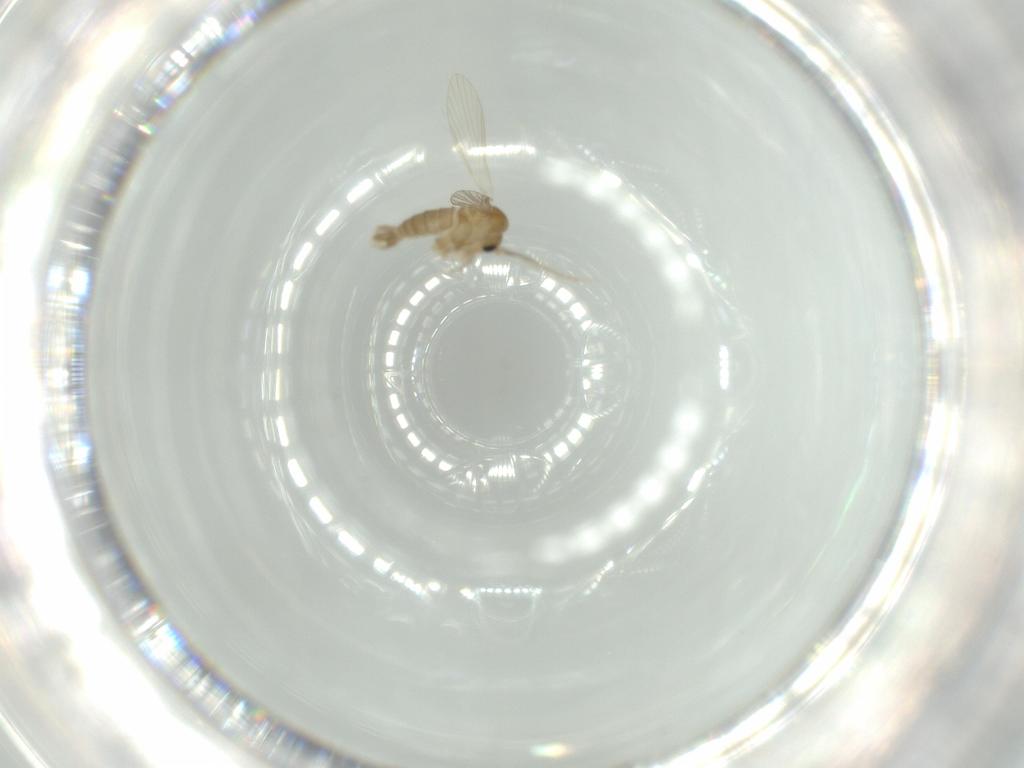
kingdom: Animalia
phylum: Arthropoda
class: Insecta
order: Diptera
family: Psychodidae
